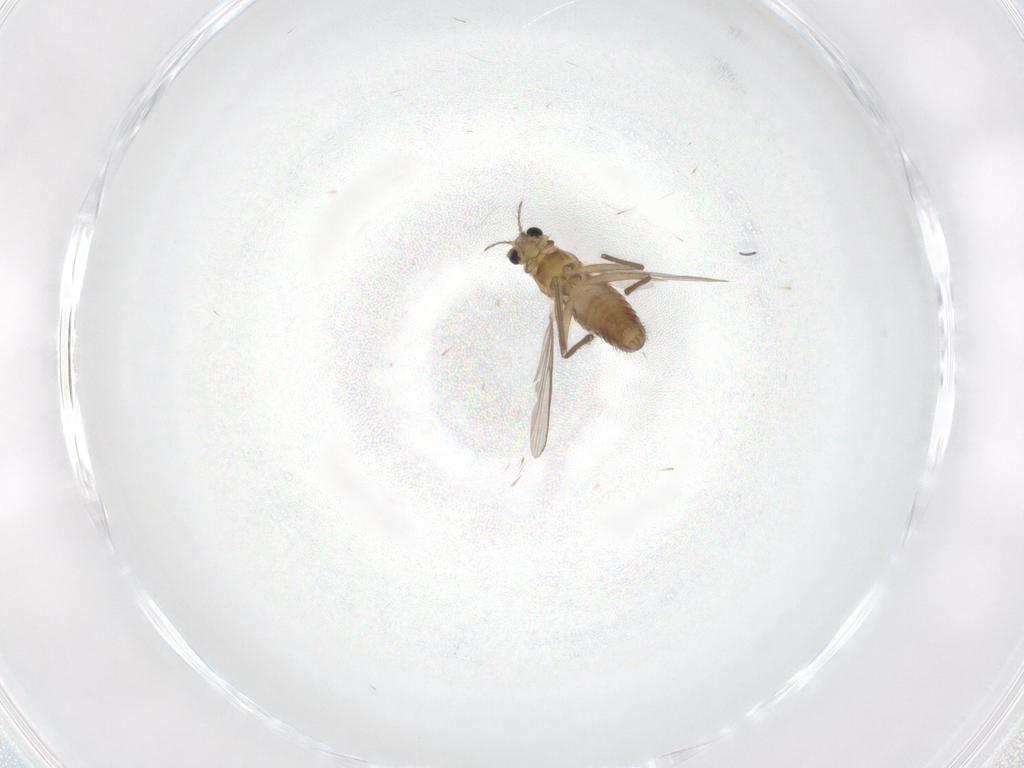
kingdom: Animalia
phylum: Arthropoda
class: Insecta
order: Diptera
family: Chironomidae
